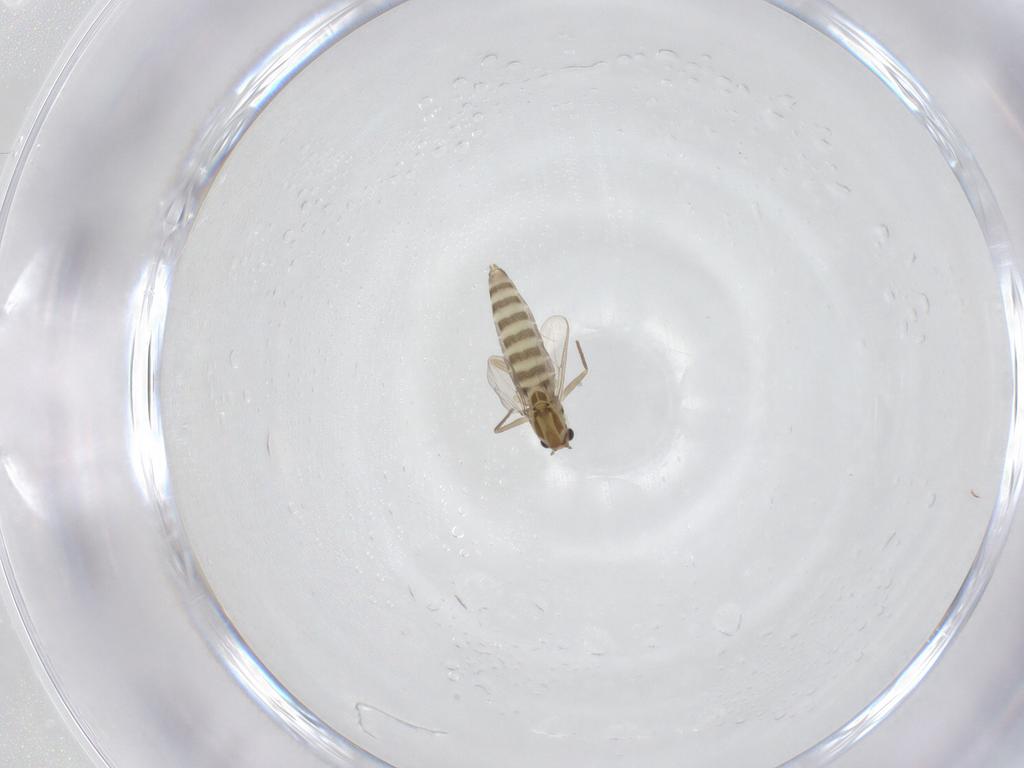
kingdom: Animalia
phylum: Arthropoda
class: Insecta
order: Diptera
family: Chironomidae
